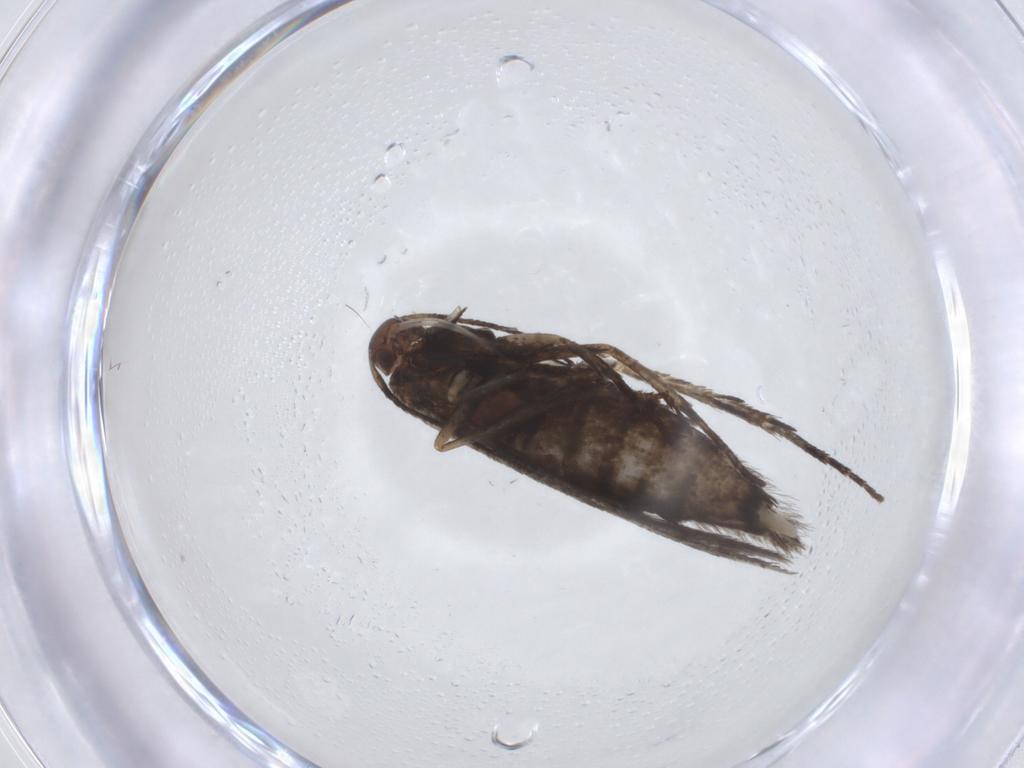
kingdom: Animalia
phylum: Arthropoda
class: Insecta
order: Lepidoptera
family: Gelechiidae
